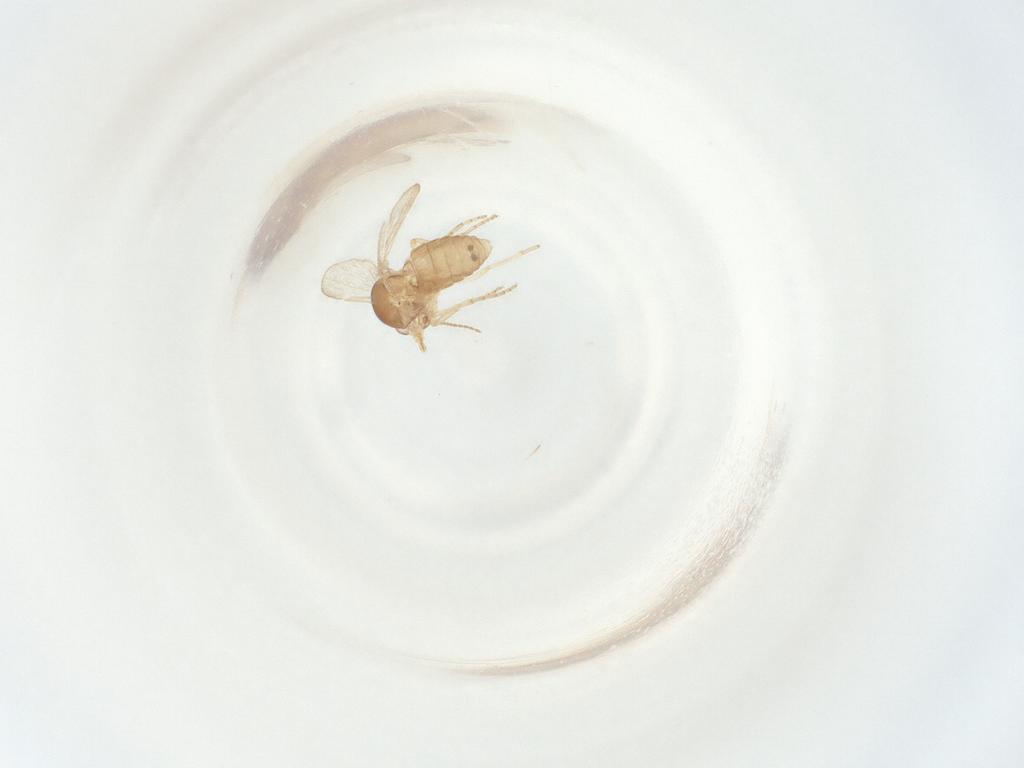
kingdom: Animalia
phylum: Arthropoda
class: Insecta
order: Diptera
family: Ceratopogonidae
